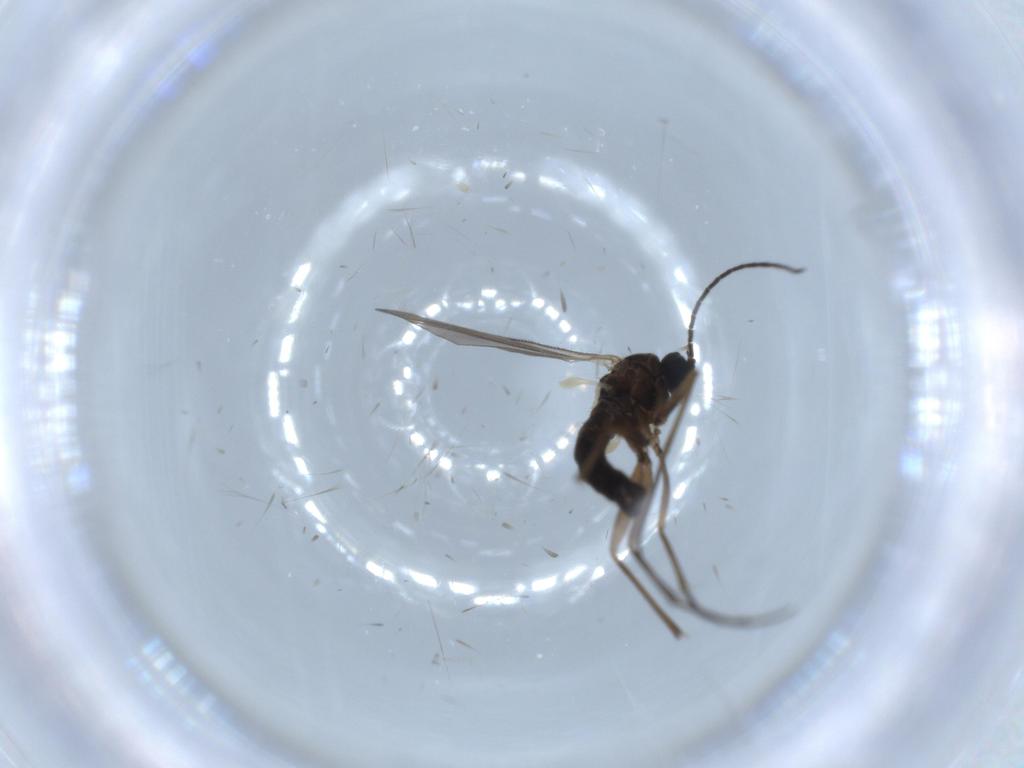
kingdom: Animalia
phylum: Arthropoda
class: Insecta
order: Diptera
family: Sciaridae
